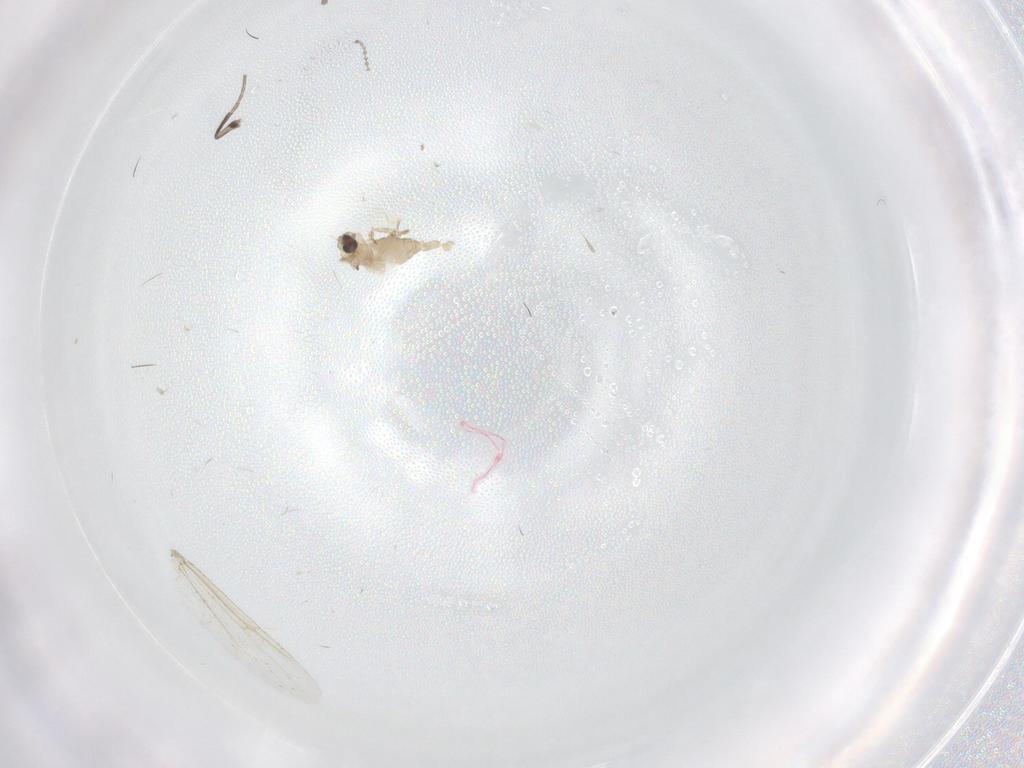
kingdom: Animalia
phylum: Arthropoda
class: Insecta
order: Diptera
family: Cecidomyiidae
